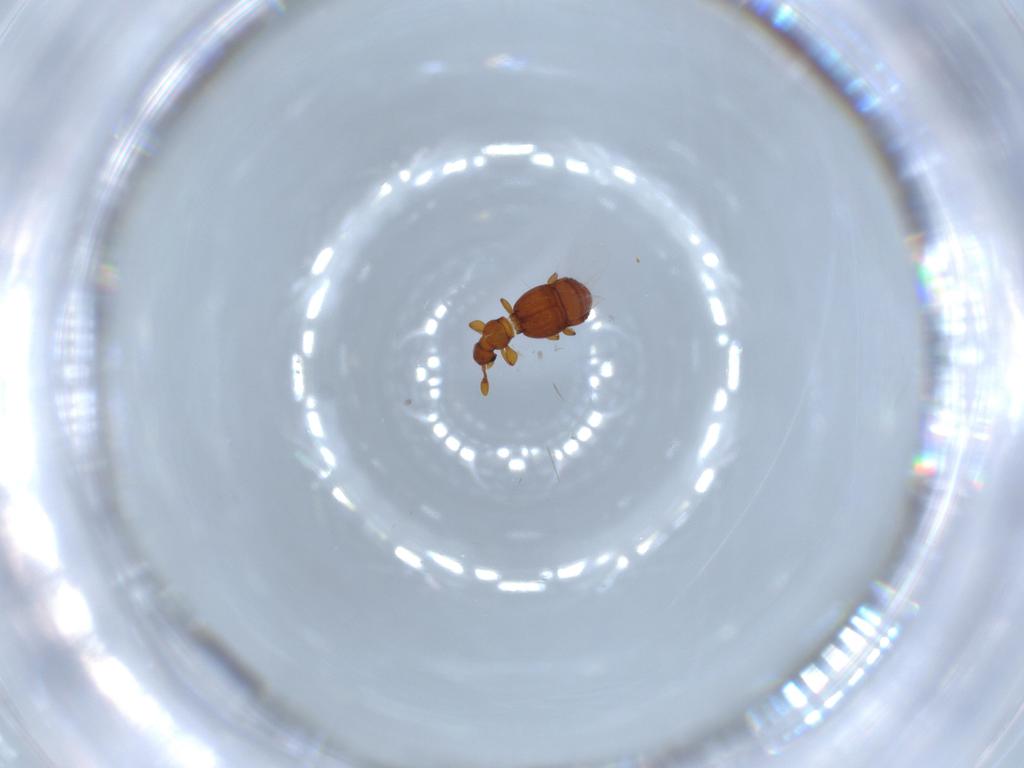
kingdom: Animalia
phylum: Arthropoda
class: Insecta
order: Coleoptera
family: Staphylinidae
